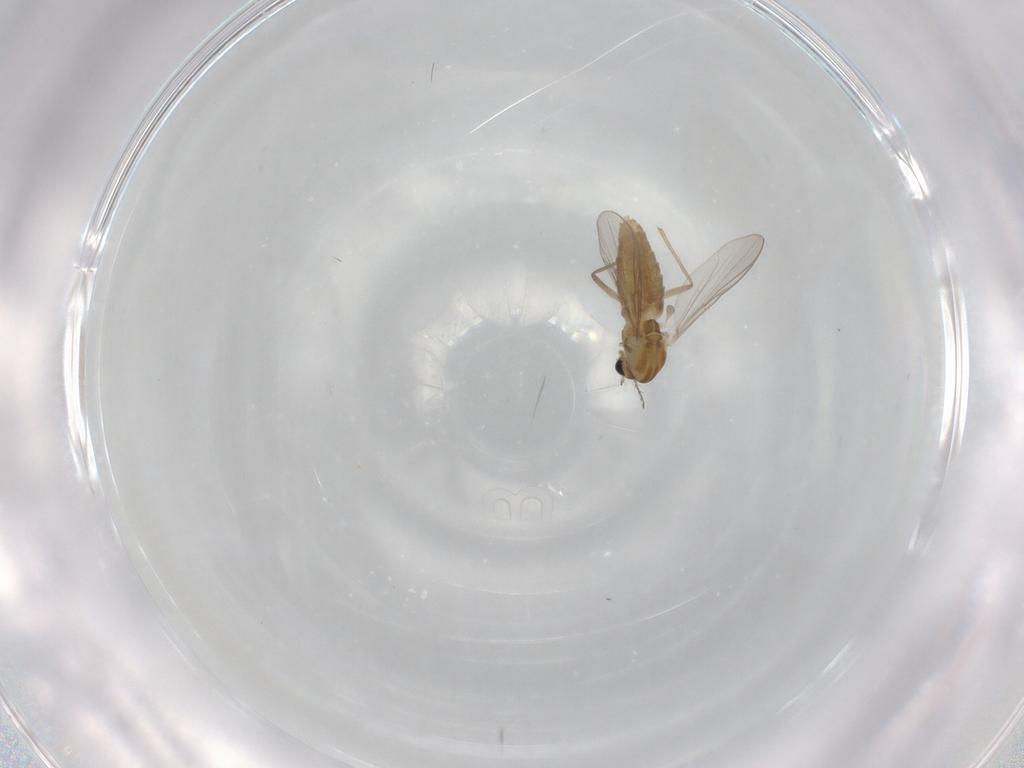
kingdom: Animalia
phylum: Arthropoda
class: Insecta
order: Diptera
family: Chironomidae
